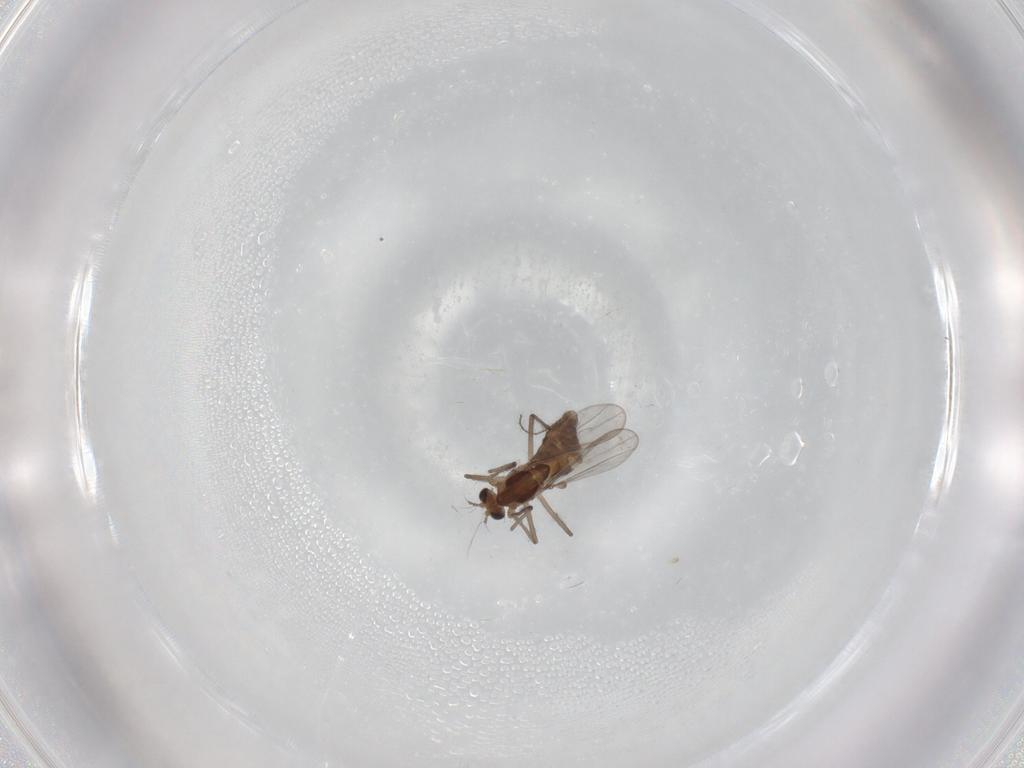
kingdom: Animalia
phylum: Arthropoda
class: Insecta
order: Diptera
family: Chironomidae
